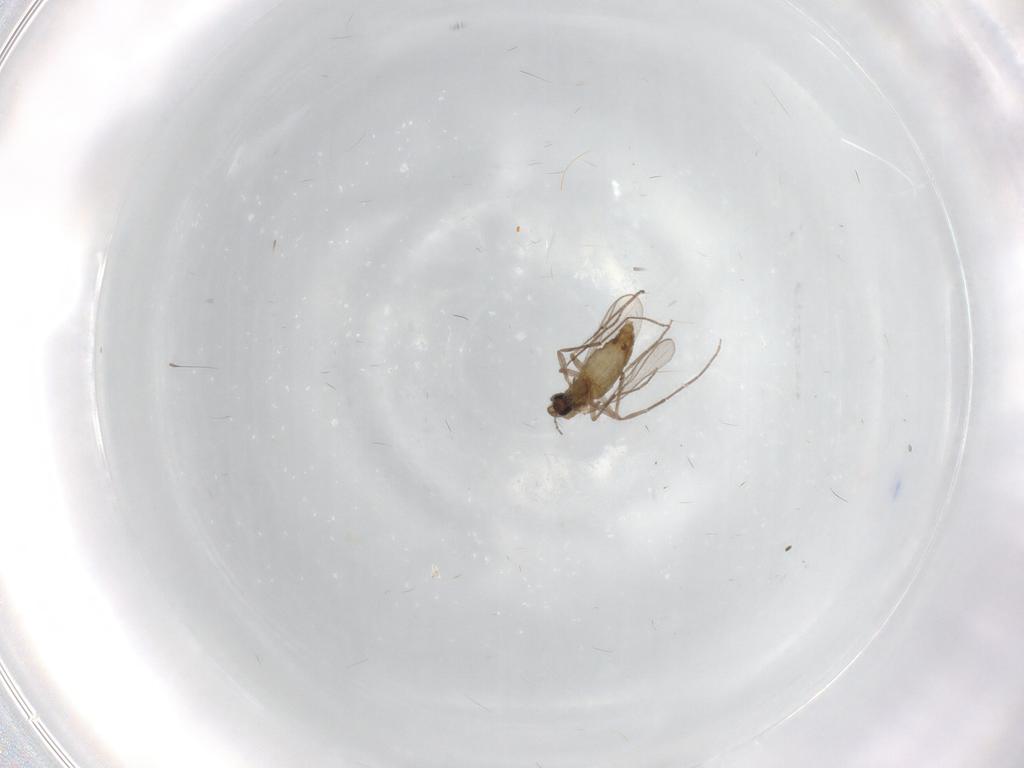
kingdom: Animalia
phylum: Arthropoda
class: Insecta
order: Diptera
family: Chironomidae
